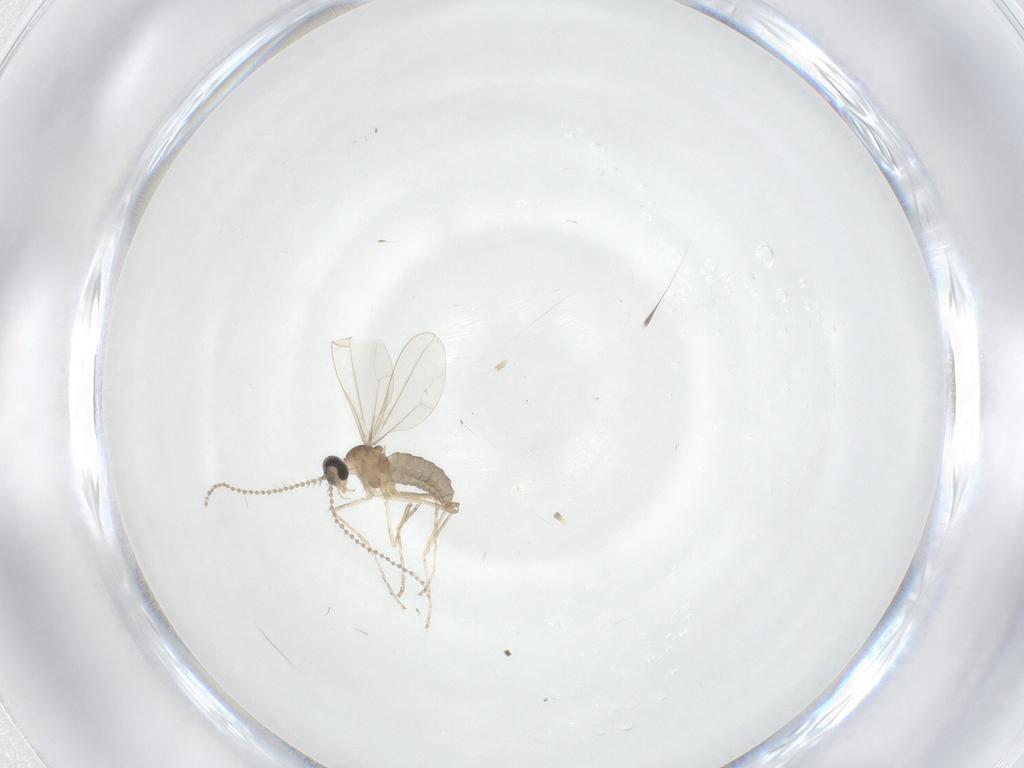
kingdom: Animalia
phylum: Arthropoda
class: Insecta
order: Diptera
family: Cecidomyiidae
